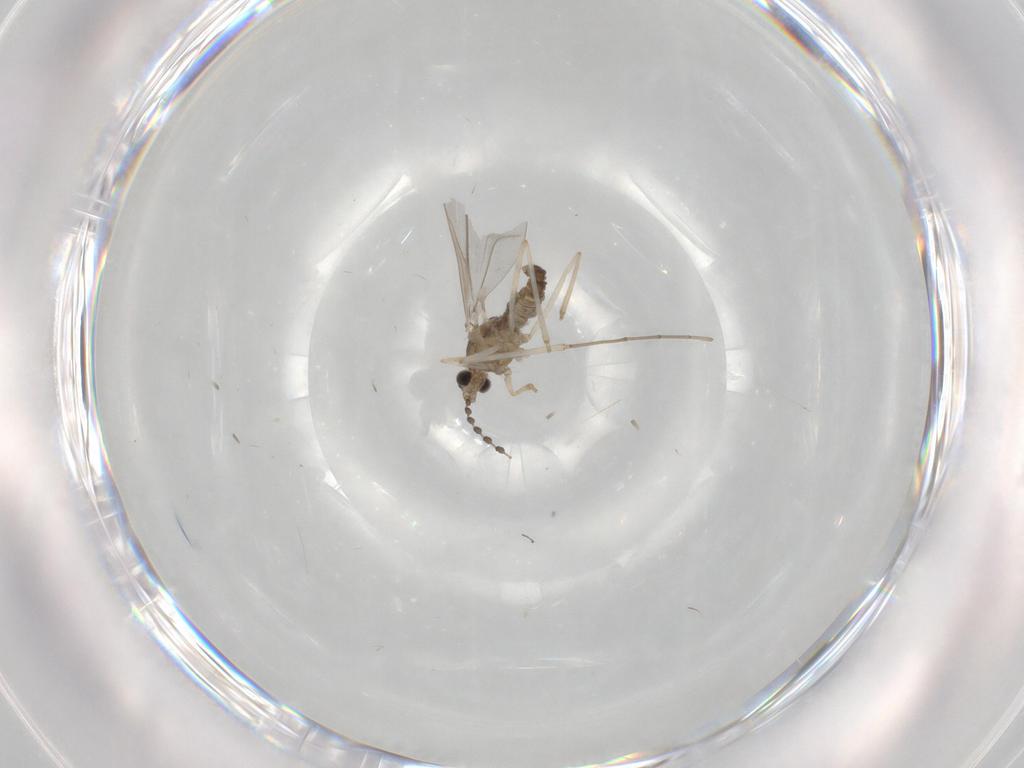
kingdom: Animalia
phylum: Arthropoda
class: Insecta
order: Diptera
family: Cecidomyiidae
